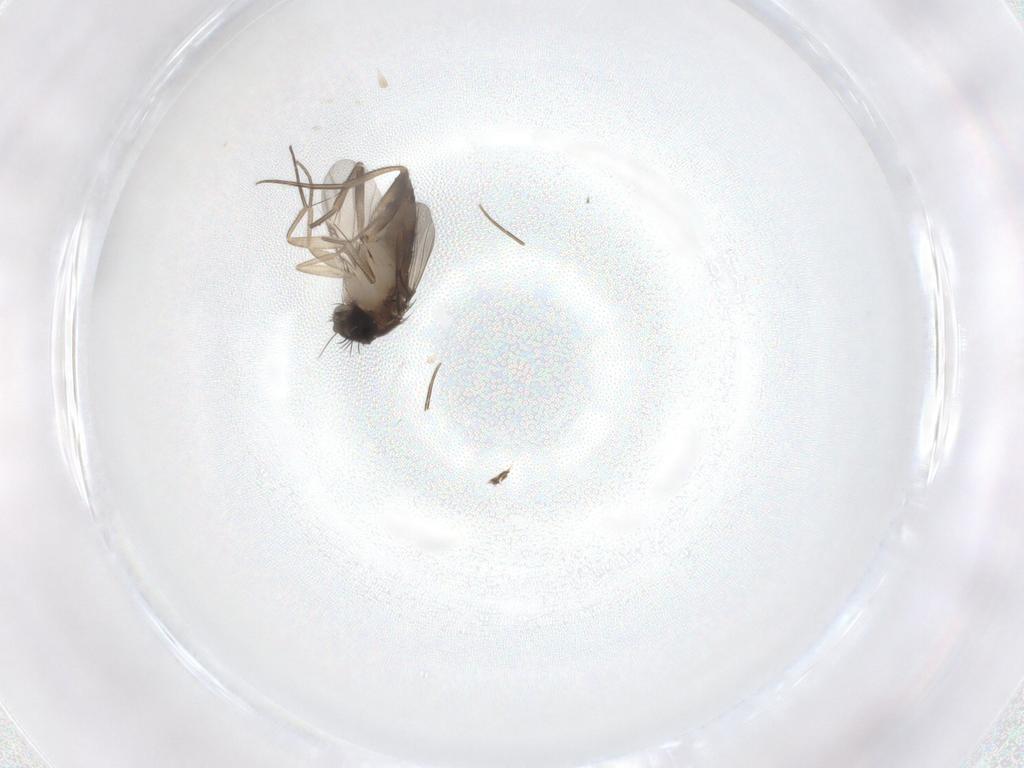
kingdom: Animalia
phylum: Arthropoda
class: Insecta
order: Diptera
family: Phoridae
